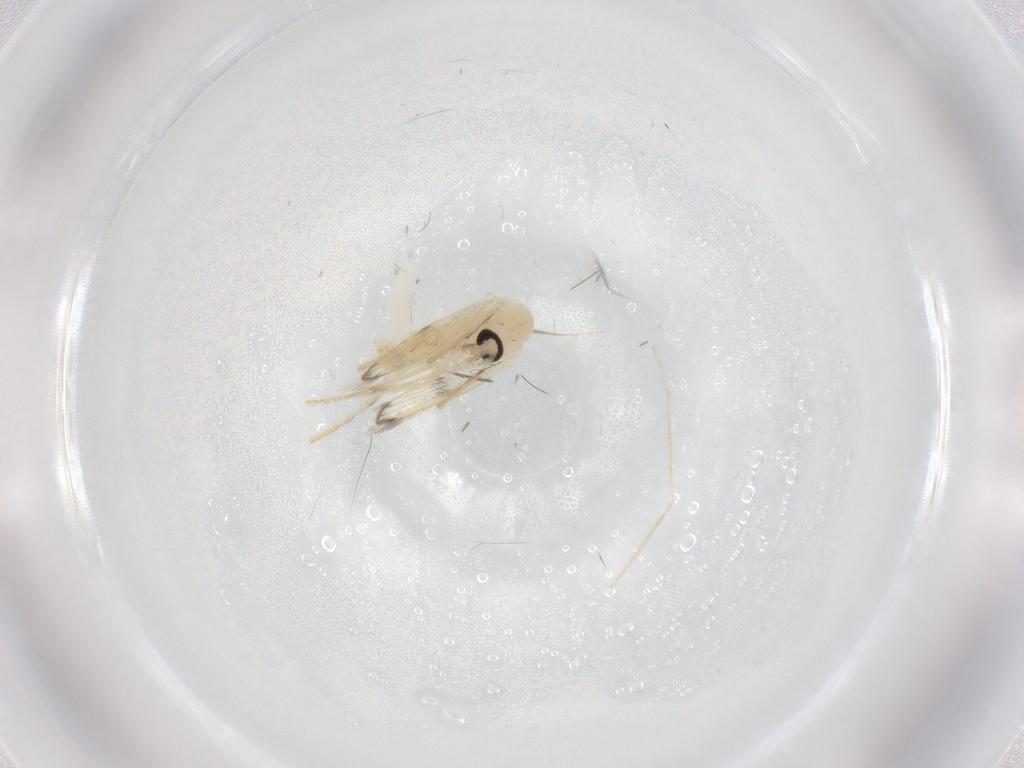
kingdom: Animalia
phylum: Arthropoda
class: Insecta
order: Diptera
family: Psychodidae
